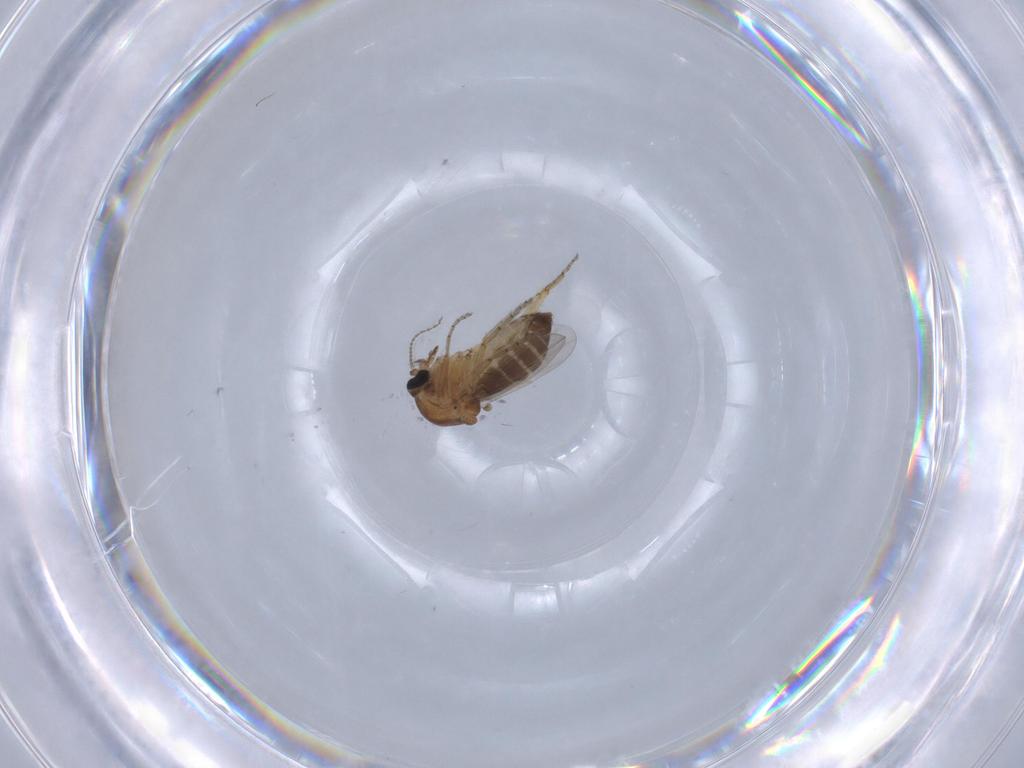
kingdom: Animalia
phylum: Arthropoda
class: Insecta
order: Diptera
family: Ceratopogonidae
